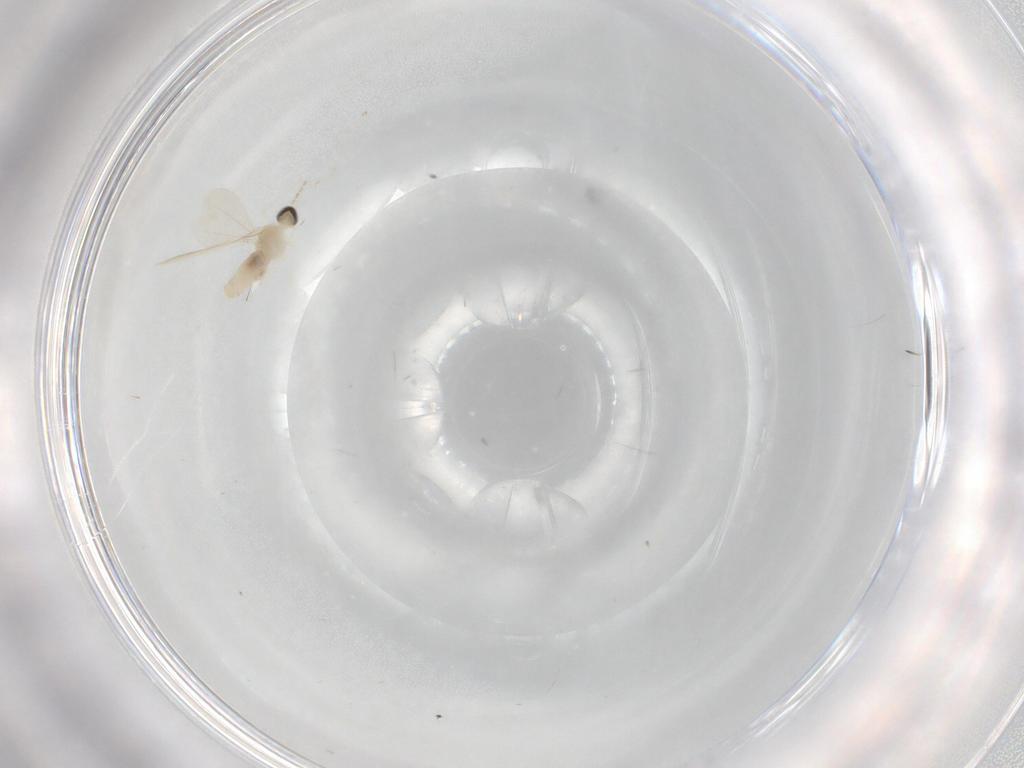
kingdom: Animalia
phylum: Arthropoda
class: Insecta
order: Diptera
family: Cecidomyiidae
